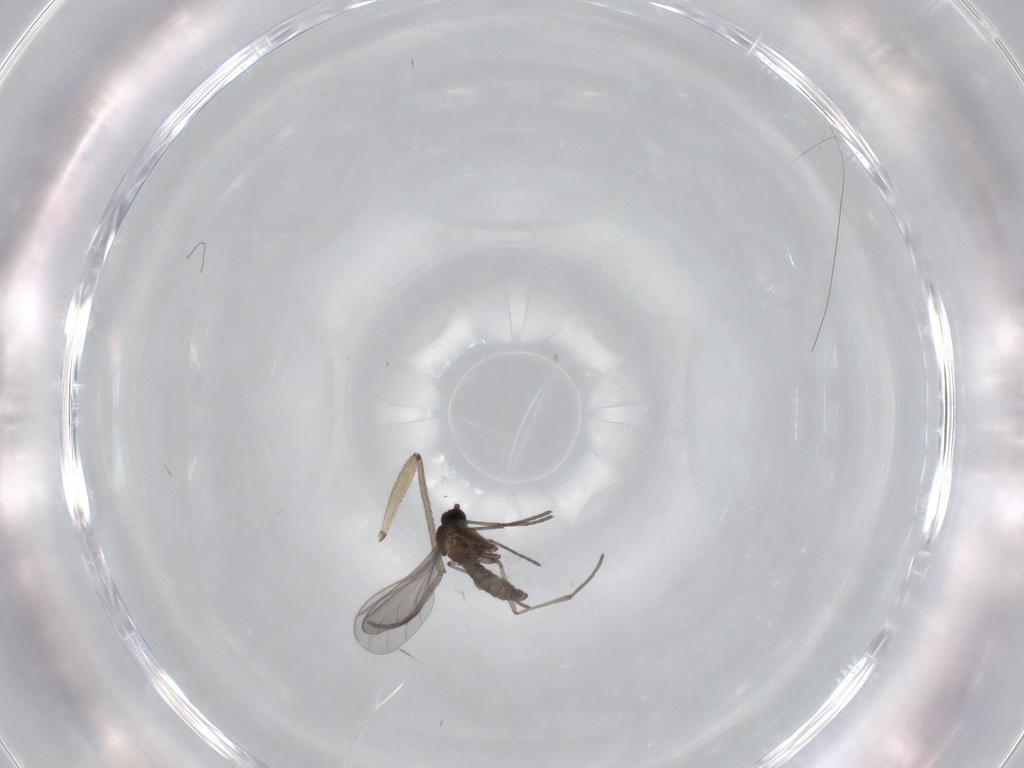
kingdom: Animalia
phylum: Arthropoda
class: Insecta
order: Diptera
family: Sciaridae
